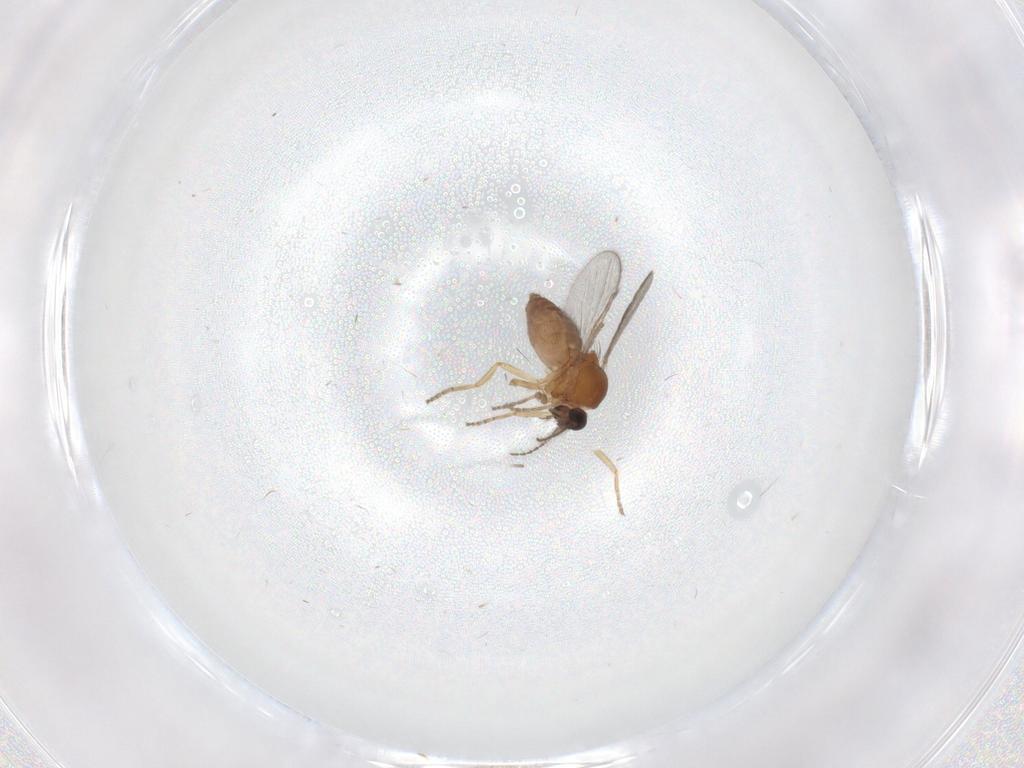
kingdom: Animalia
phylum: Arthropoda
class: Insecta
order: Diptera
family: Ceratopogonidae
